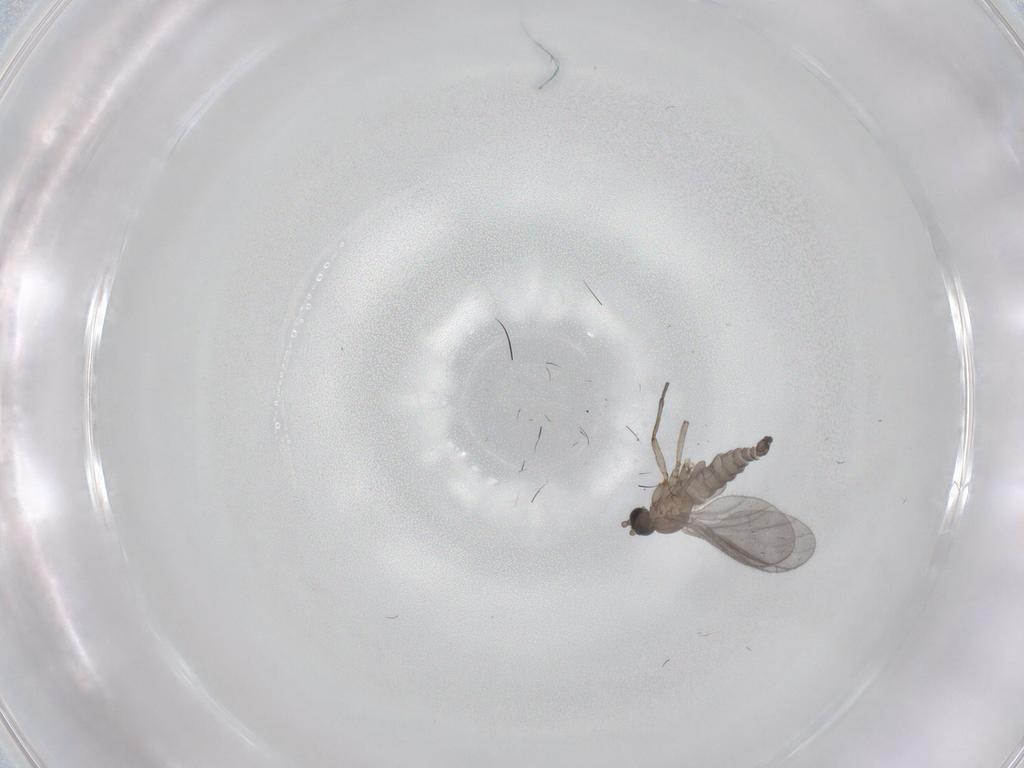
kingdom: Animalia
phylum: Arthropoda
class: Insecta
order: Diptera
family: Sciaridae
